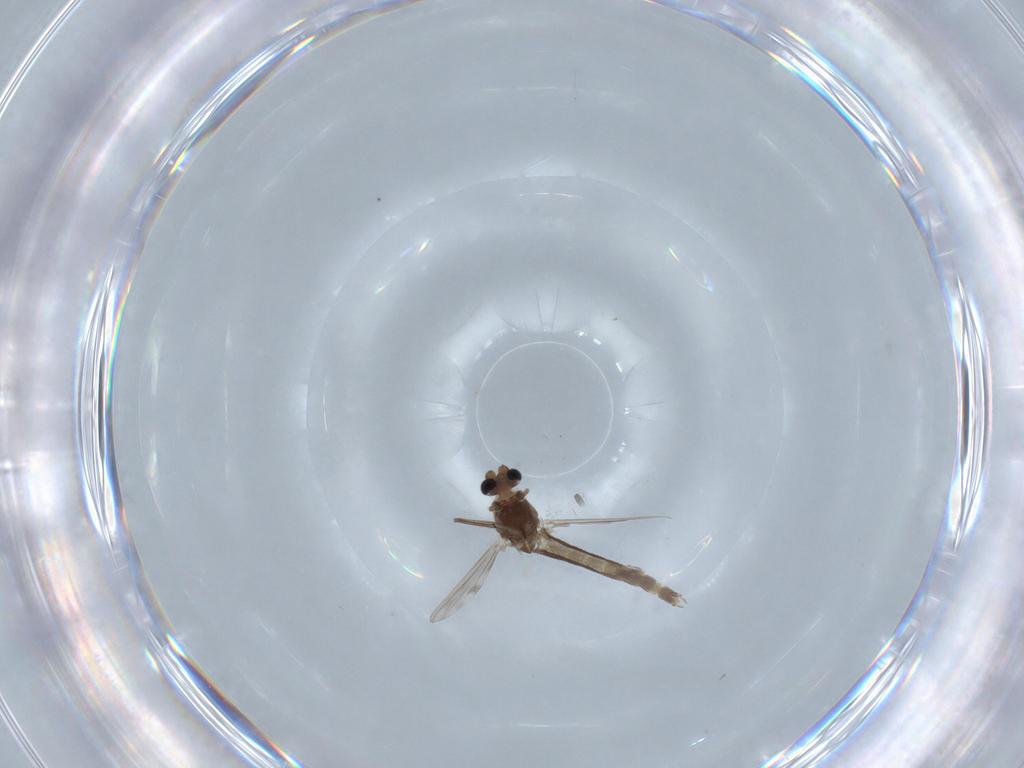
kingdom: Animalia
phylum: Arthropoda
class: Insecta
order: Diptera
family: Chironomidae
